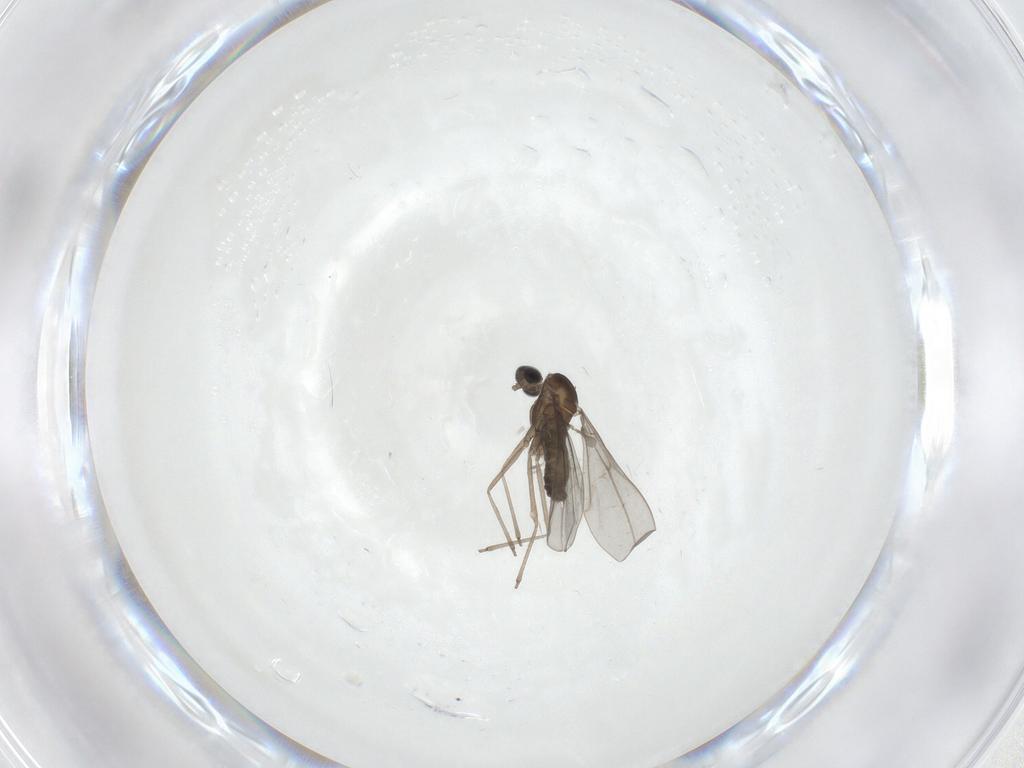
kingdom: Animalia
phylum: Arthropoda
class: Insecta
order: Diptera
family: Cecidomyiidae
